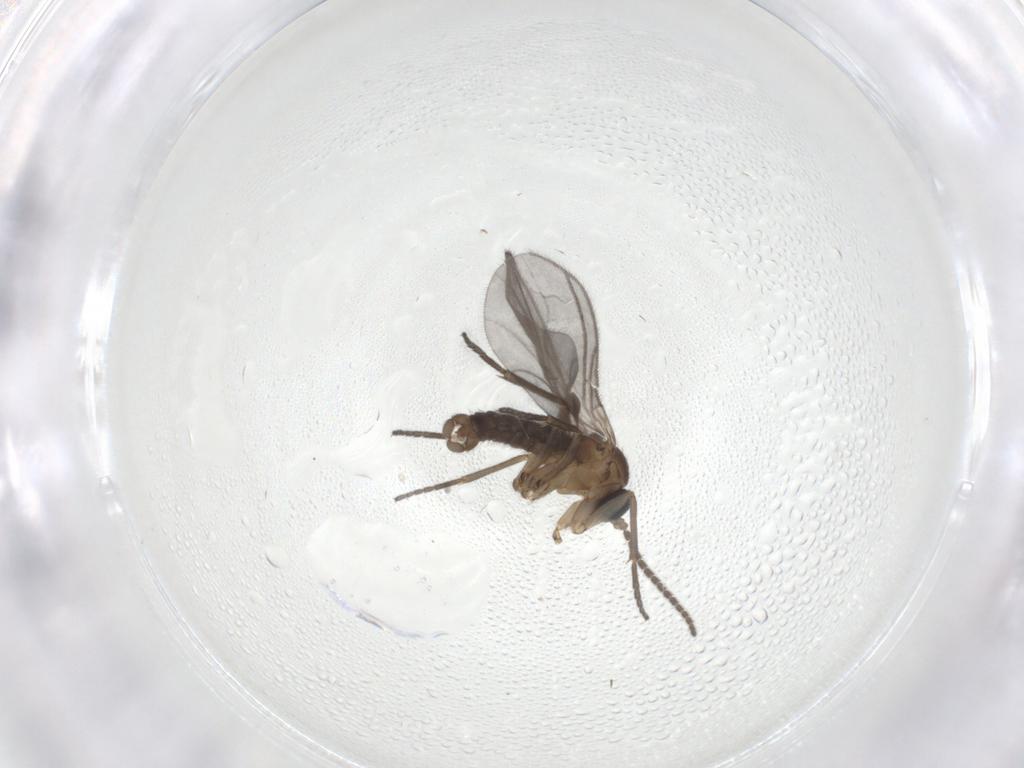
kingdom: Animalia
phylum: Arthropoda
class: Insecta
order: Diptera
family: Sciaridae
